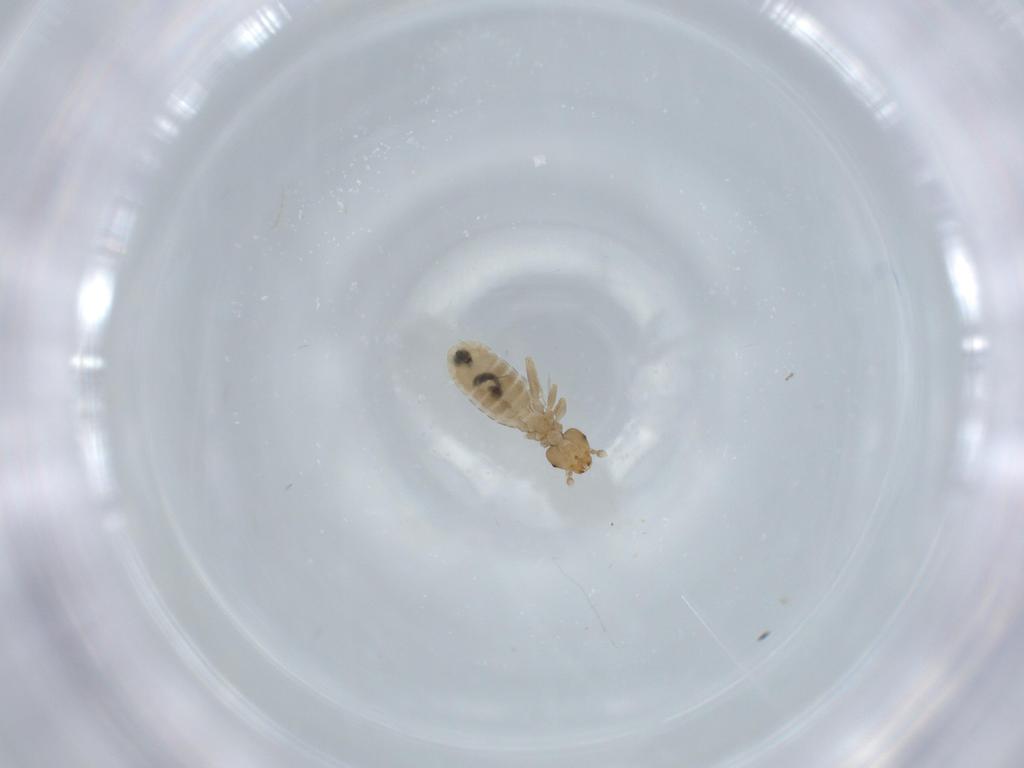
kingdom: Animalia
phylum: Arthropoda
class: Insecta
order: Psocodea
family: Liposcelididae
